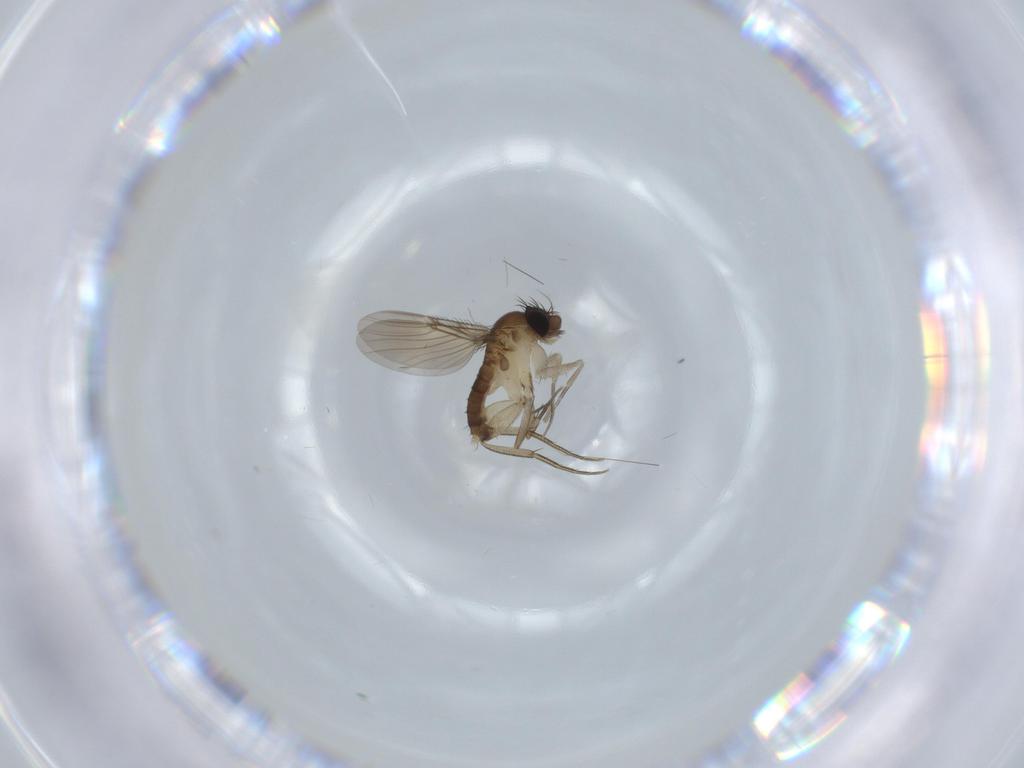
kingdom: Animalia
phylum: Arthropoda
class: Insecta
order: Diptera
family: Phoridae
